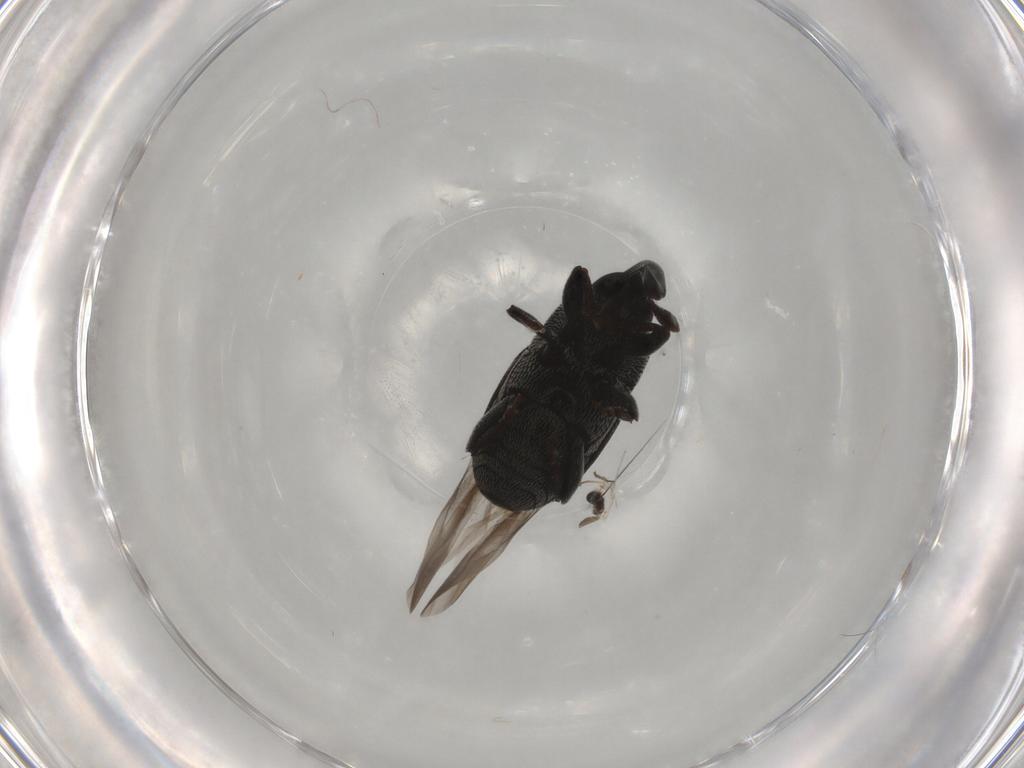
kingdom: Animalia
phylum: Arthropoda
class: Insecta
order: Coleoptera
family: Curculionidae
